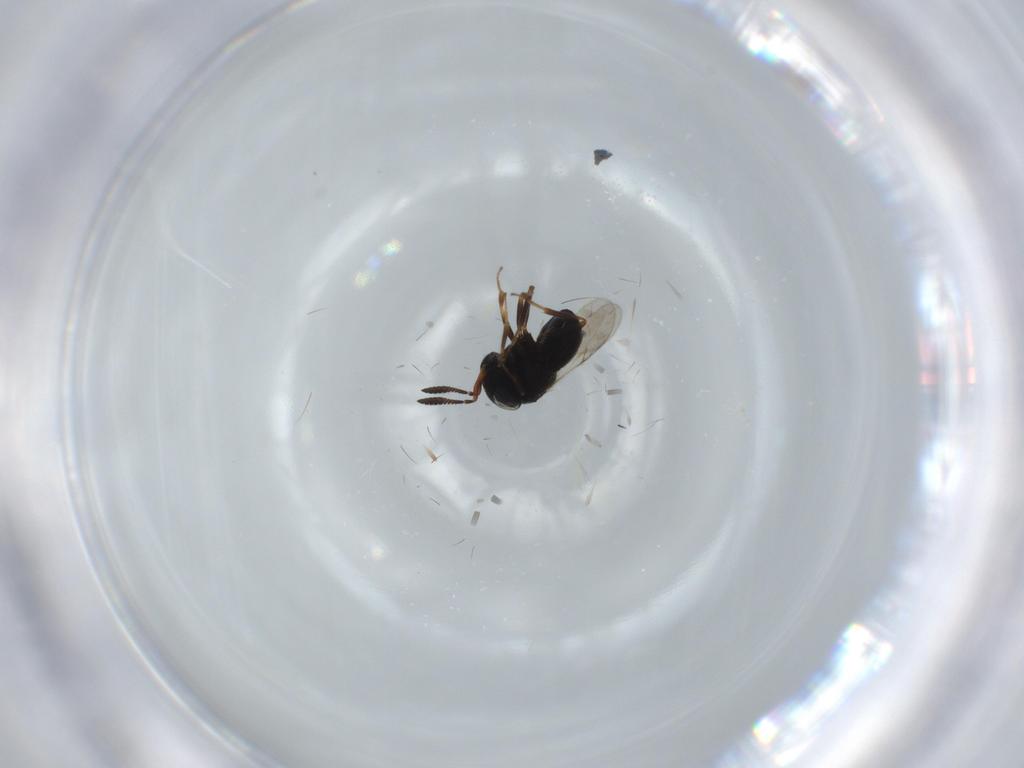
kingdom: Animalia
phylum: Arthropoda
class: Insecta
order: Hymenoptera
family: Scelionidae
